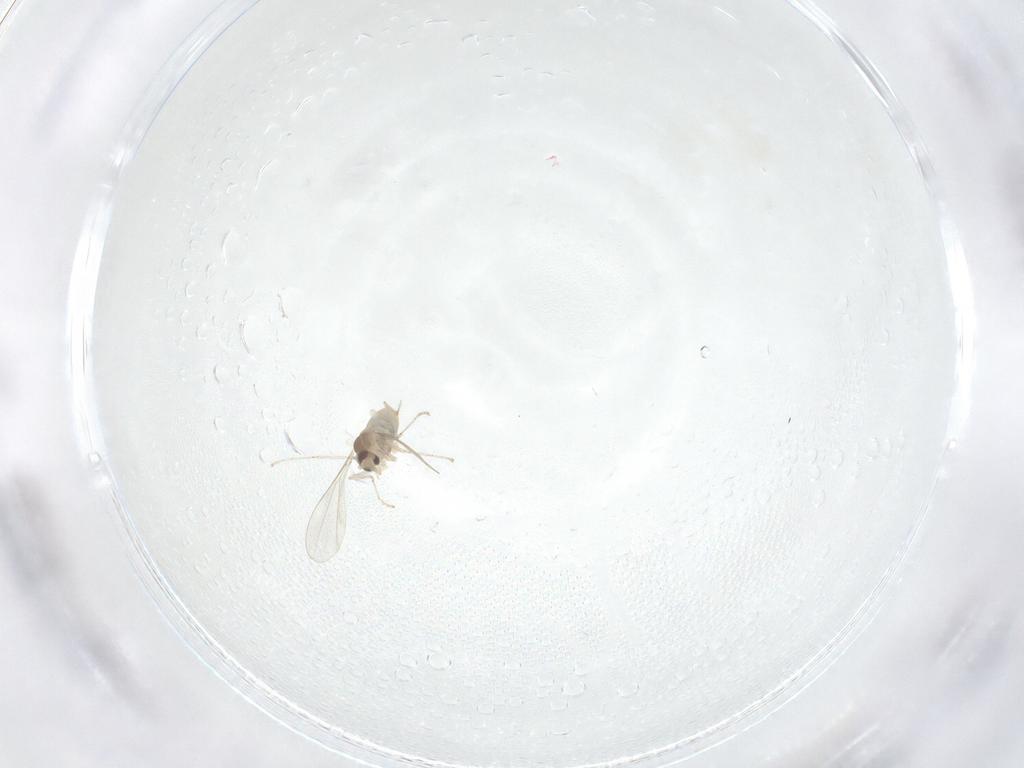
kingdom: Animalia
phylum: Arthropoda
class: Insecta
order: Diptera
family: Cecidomyiidae
